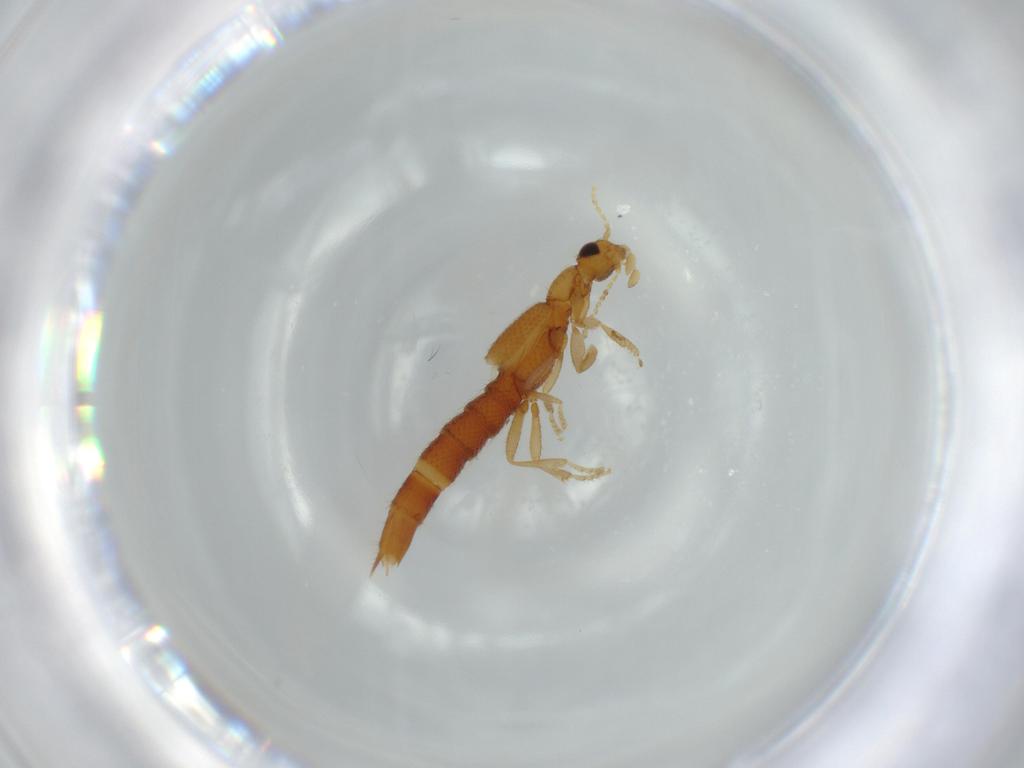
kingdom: Animalia
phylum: Arthropoda
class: Insecta
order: Coleoptera
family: Staphylinidae
